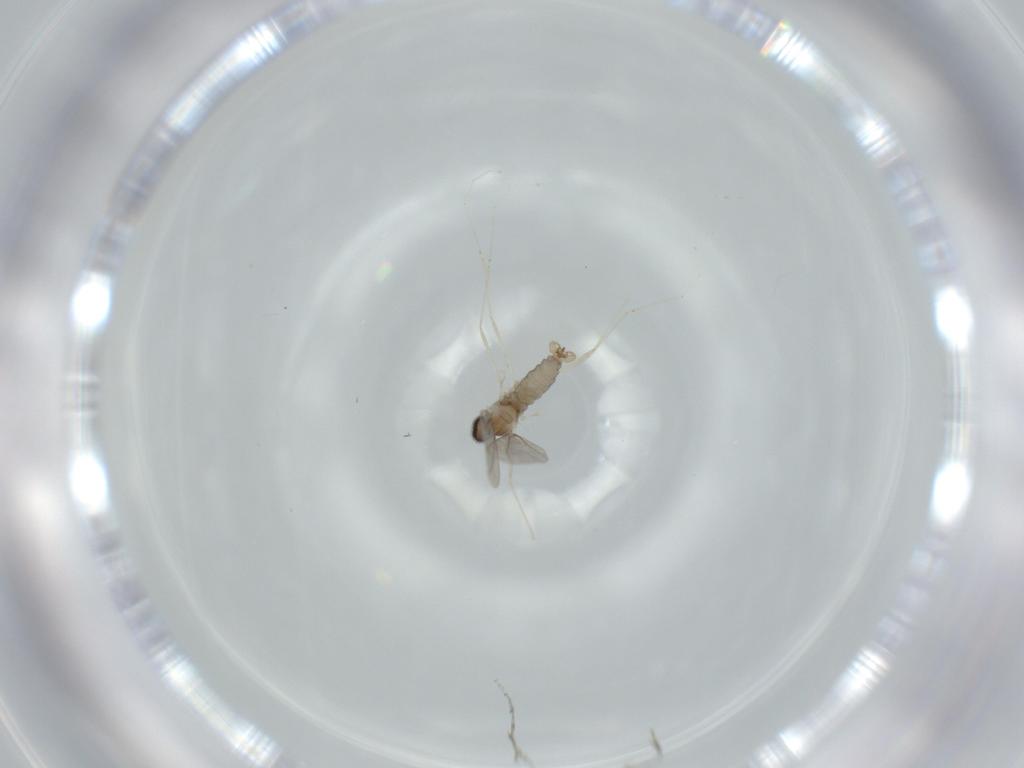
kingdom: Animalia
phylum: Arthropoda
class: Insecta
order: Diptera
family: Cecidomyiidae
